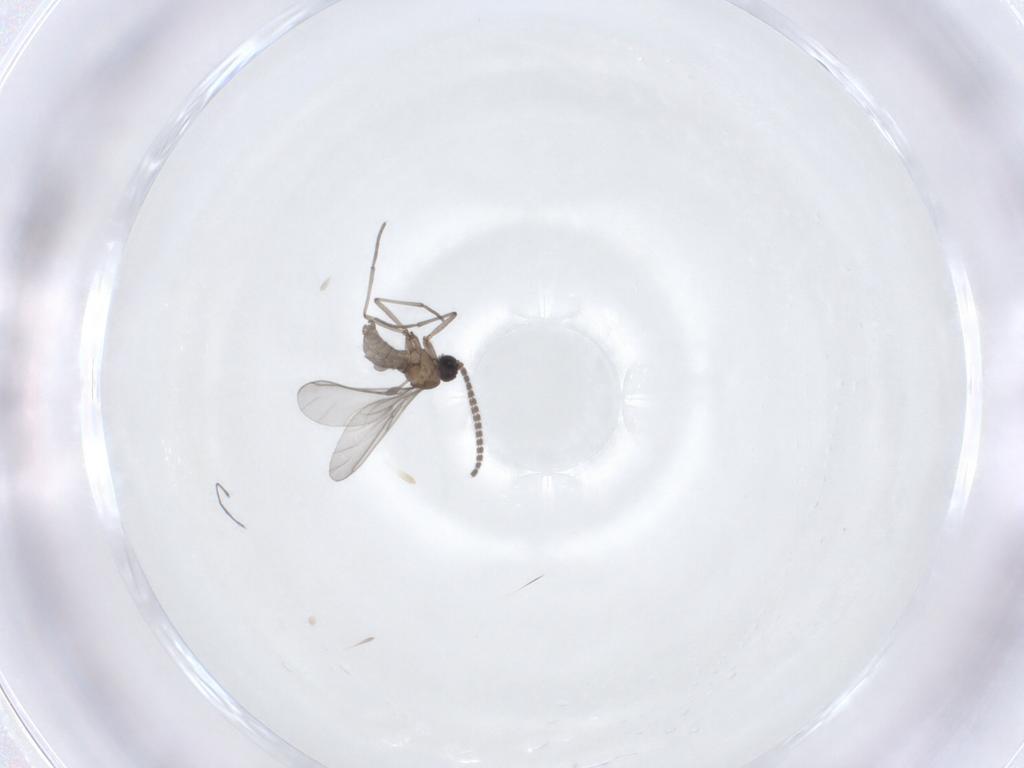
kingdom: Animalia
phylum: Arthropoda
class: Insecta
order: Diptera
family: Sciaridae
